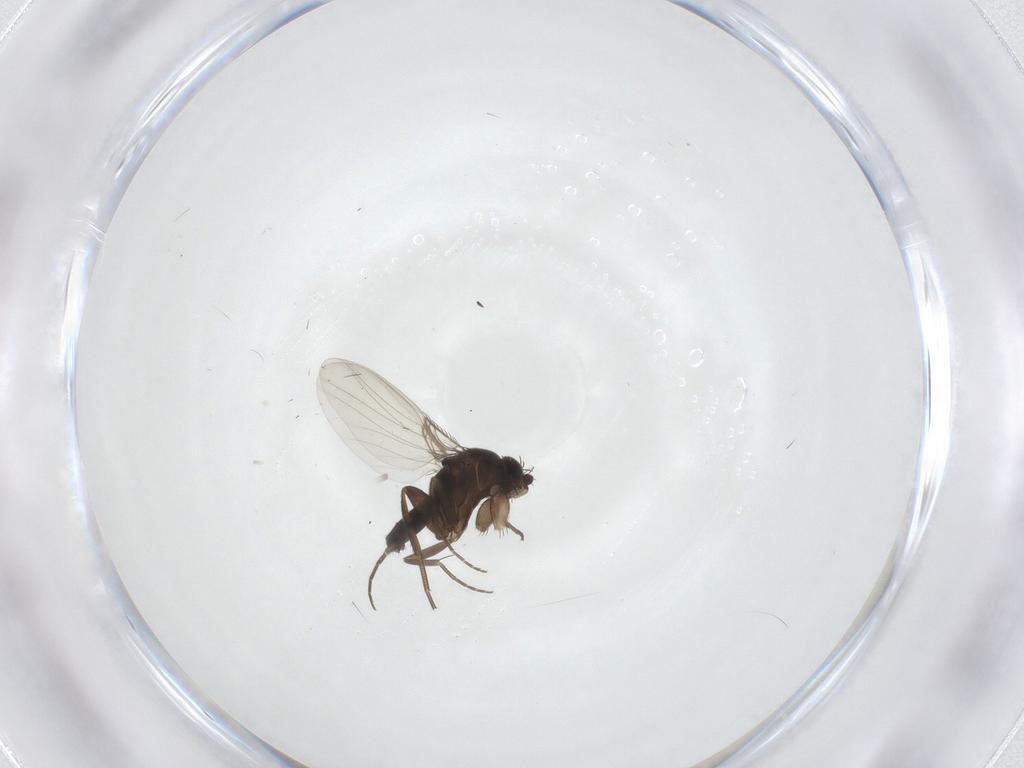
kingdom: Animalia
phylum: Arthropoda
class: Insecta
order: Diptera
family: Phoridae
